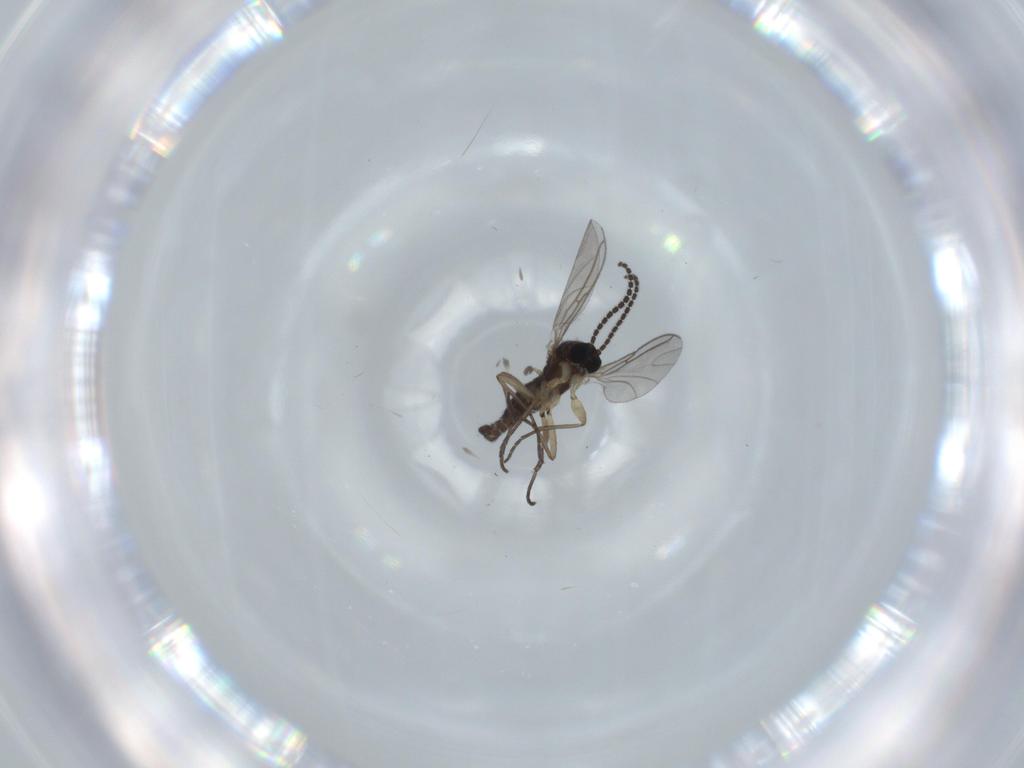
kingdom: Animalia
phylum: Arthropoda
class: Insecta
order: Diptera
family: Sciaridae
